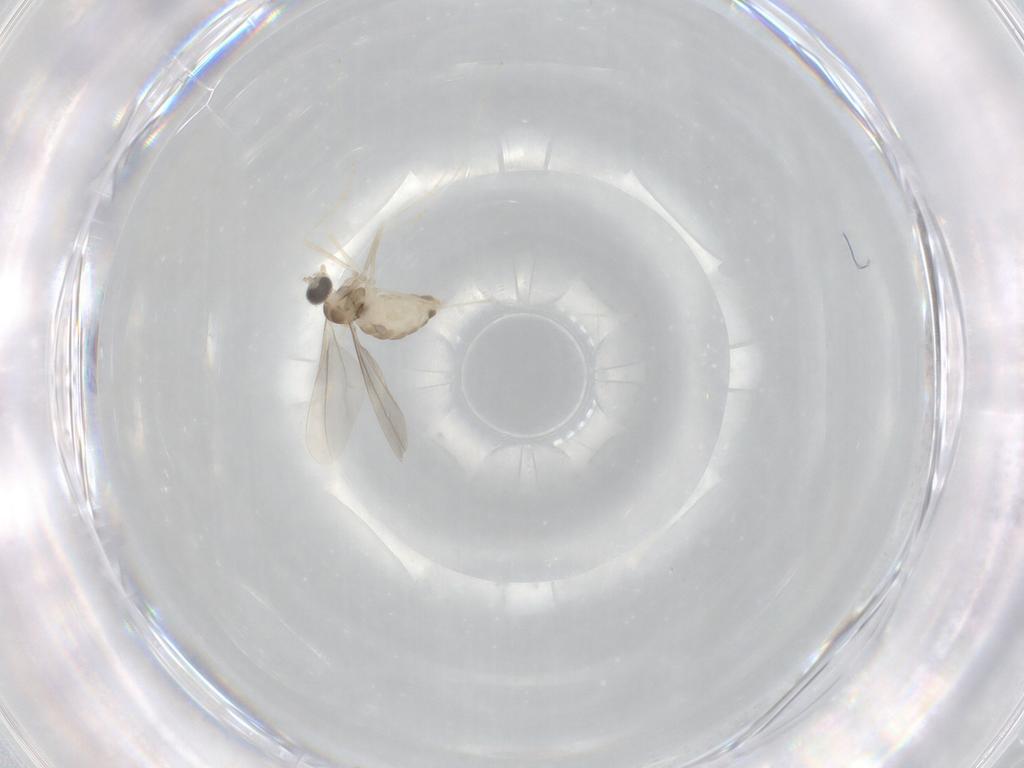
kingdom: Animalia
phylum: Arthropoda
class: Insecta
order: Diptera
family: Cecidomyiidae
